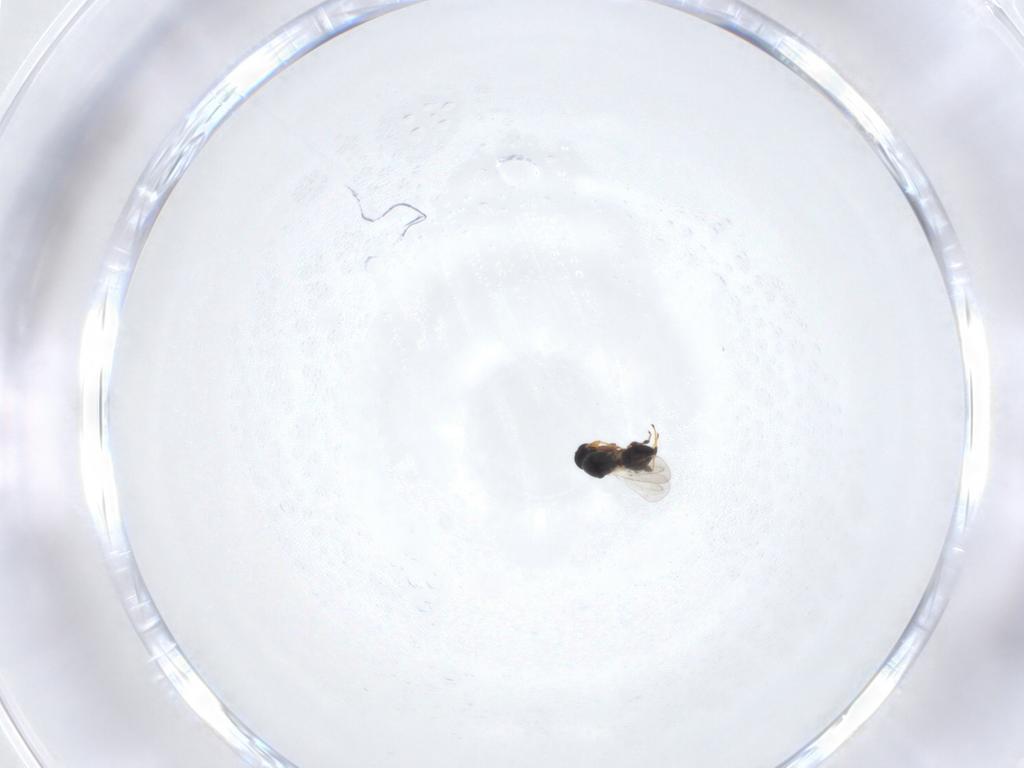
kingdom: Animalia
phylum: Arthropoda
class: Insecta
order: Hymenoptera
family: Platygastridae
